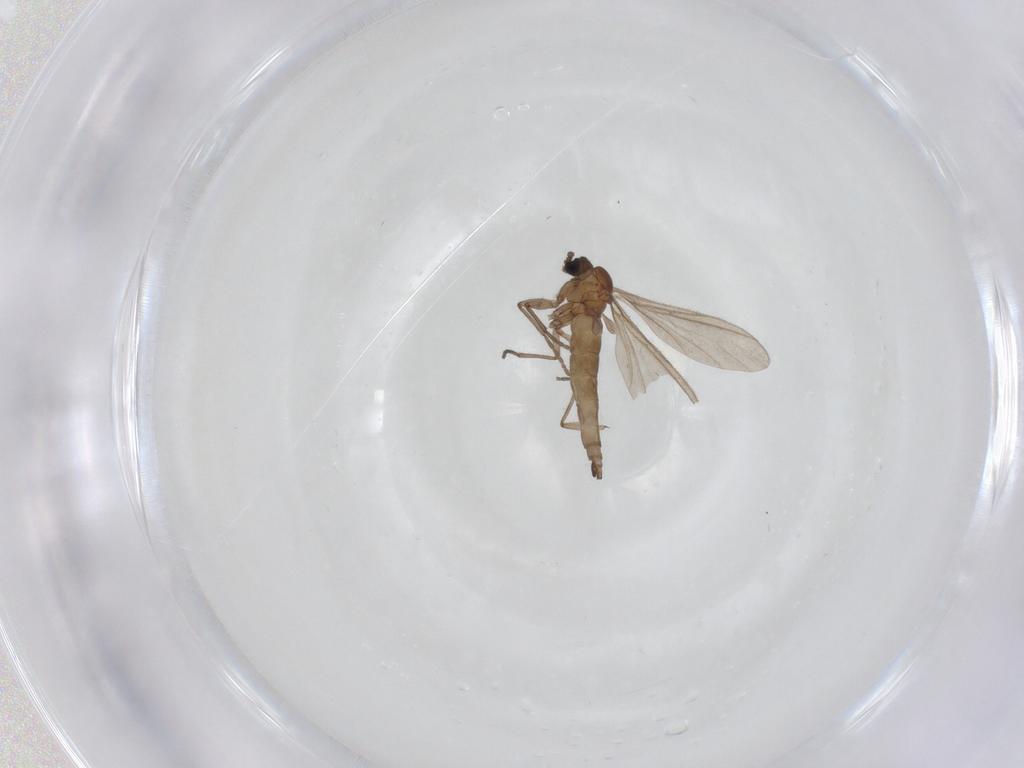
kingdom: Animalia
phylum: Arthropoda
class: Insecta
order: Diptera
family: Sciaridae
